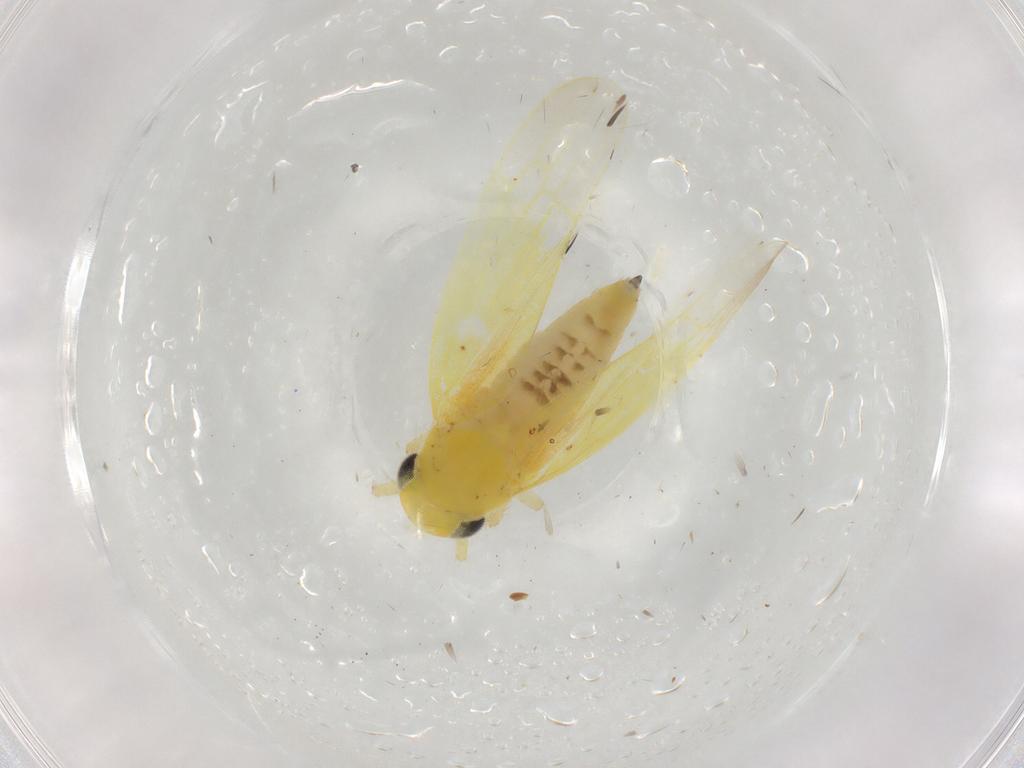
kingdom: Animalia
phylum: Arthropoda
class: Insecta
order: Hemiptera
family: Cicadellidae
